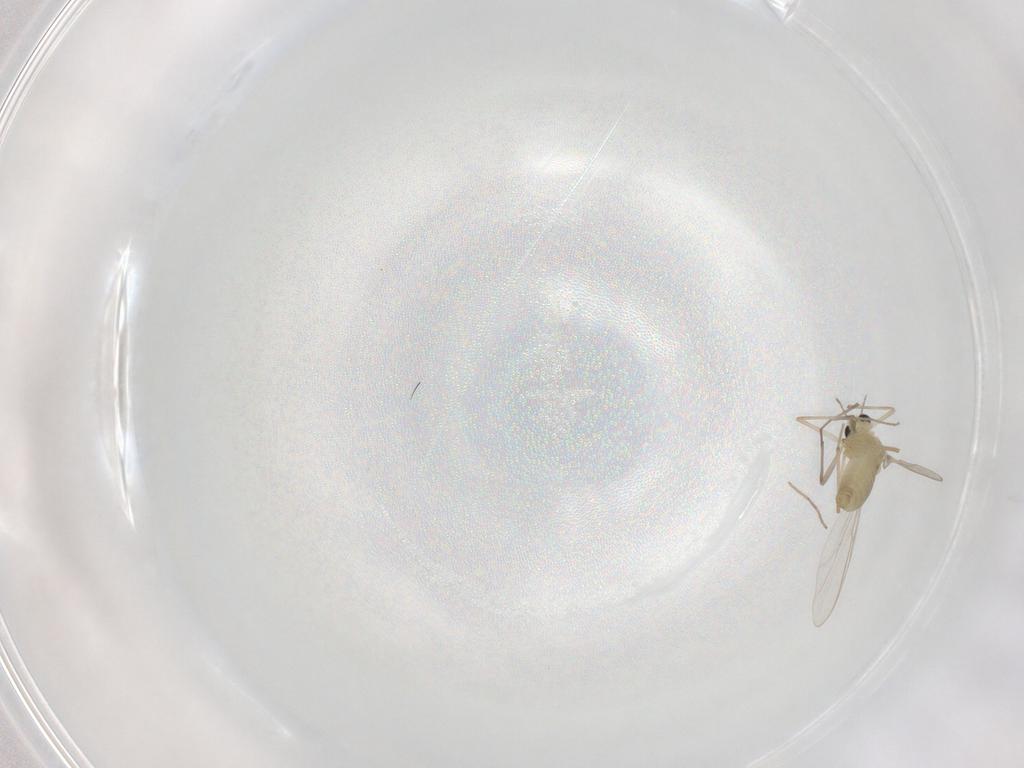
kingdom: Animalia
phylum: Arthropoda
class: Insecta
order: Diptera
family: Chironomidae
